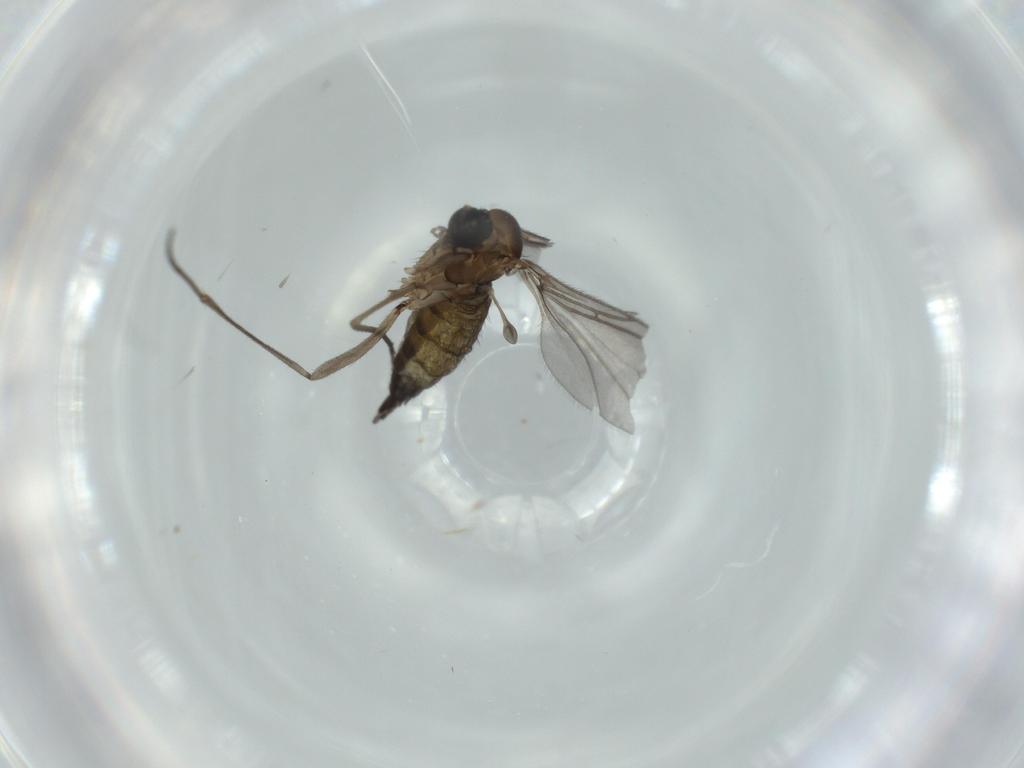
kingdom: Animalia
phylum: Arthropoda
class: Insecta
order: Diptera
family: Sciaridae
